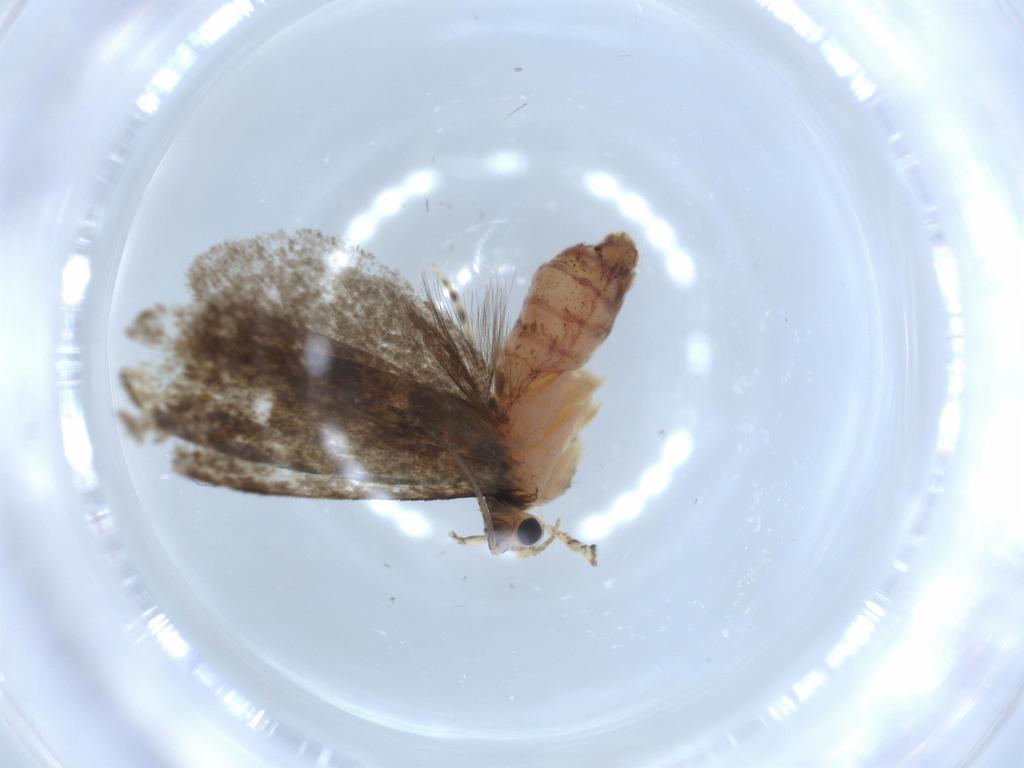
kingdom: Animalia
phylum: Arthropoda
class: Insecta
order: Lepidoptera
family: Tineidae
